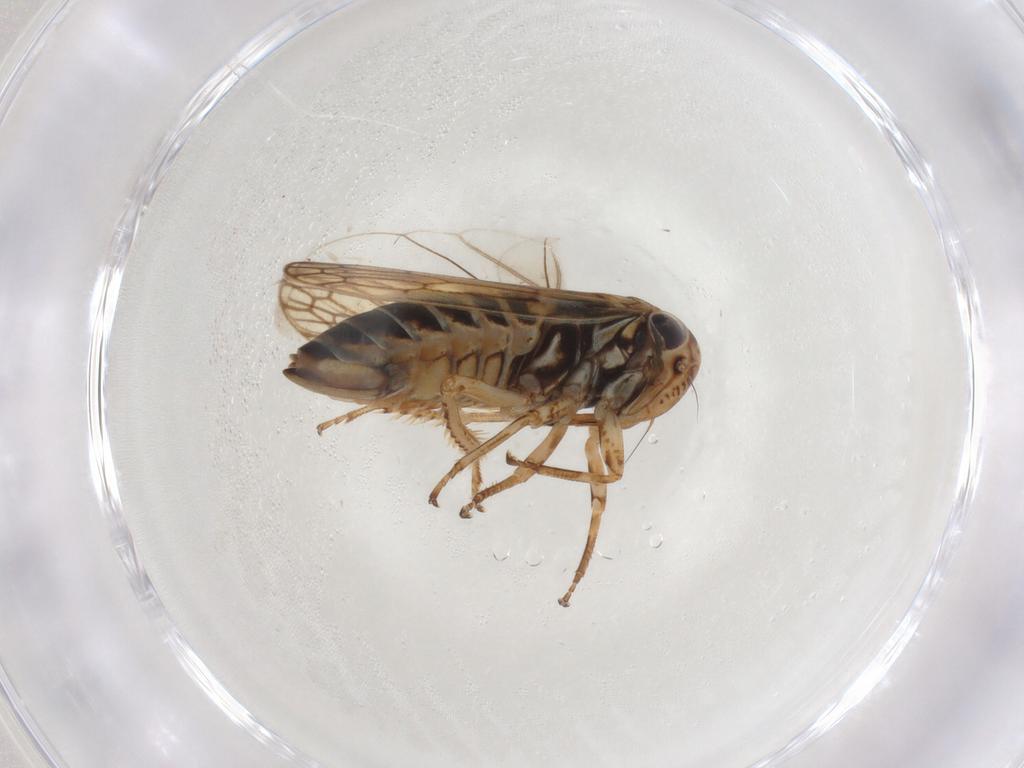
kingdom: Animalia
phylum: Arthropoda
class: Insecta
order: Hemiptera
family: Cicadellidae
